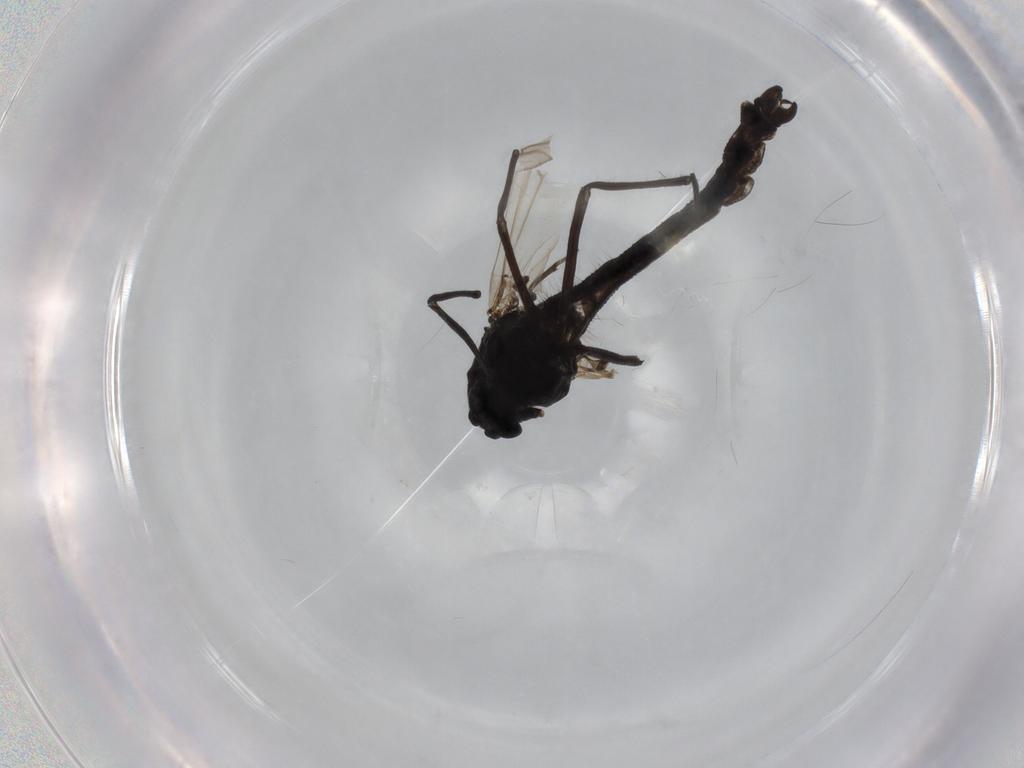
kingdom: Animalia
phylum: Arthropoda
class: Insecta
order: Diptera
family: Chironomidae
